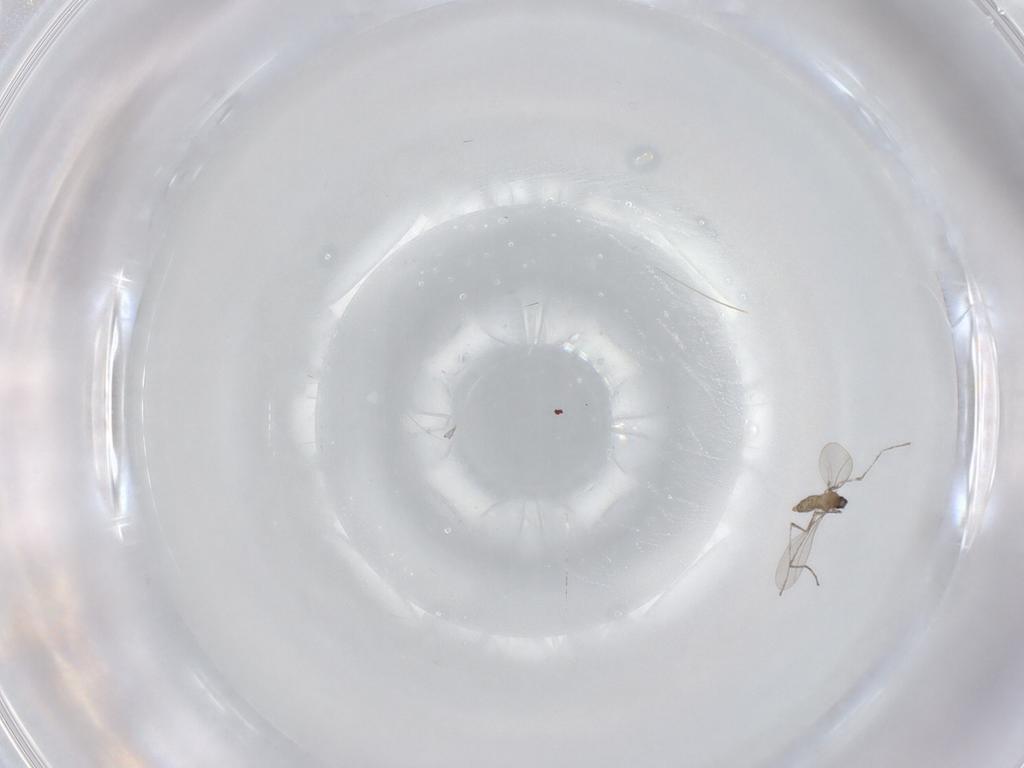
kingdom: Animalia
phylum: Arthropoda
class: Insecta
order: Diptera
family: Cecidomyiidae
